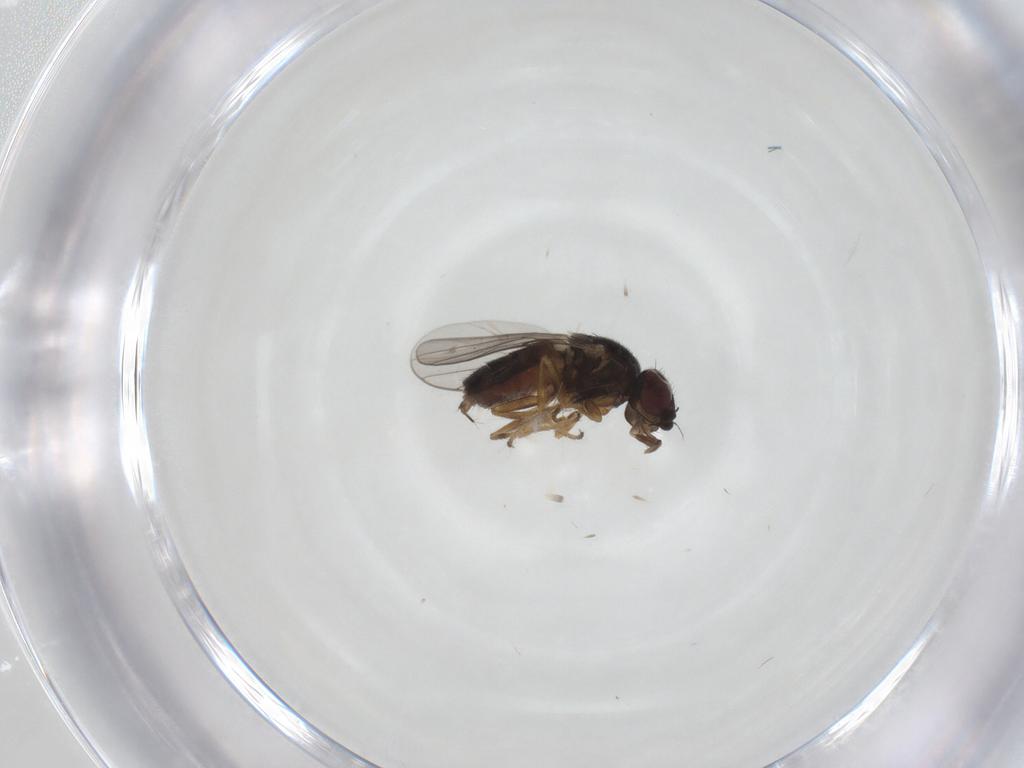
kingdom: Animalia
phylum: Arthropoda
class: Insecta
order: Diptera
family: Chloropidae
